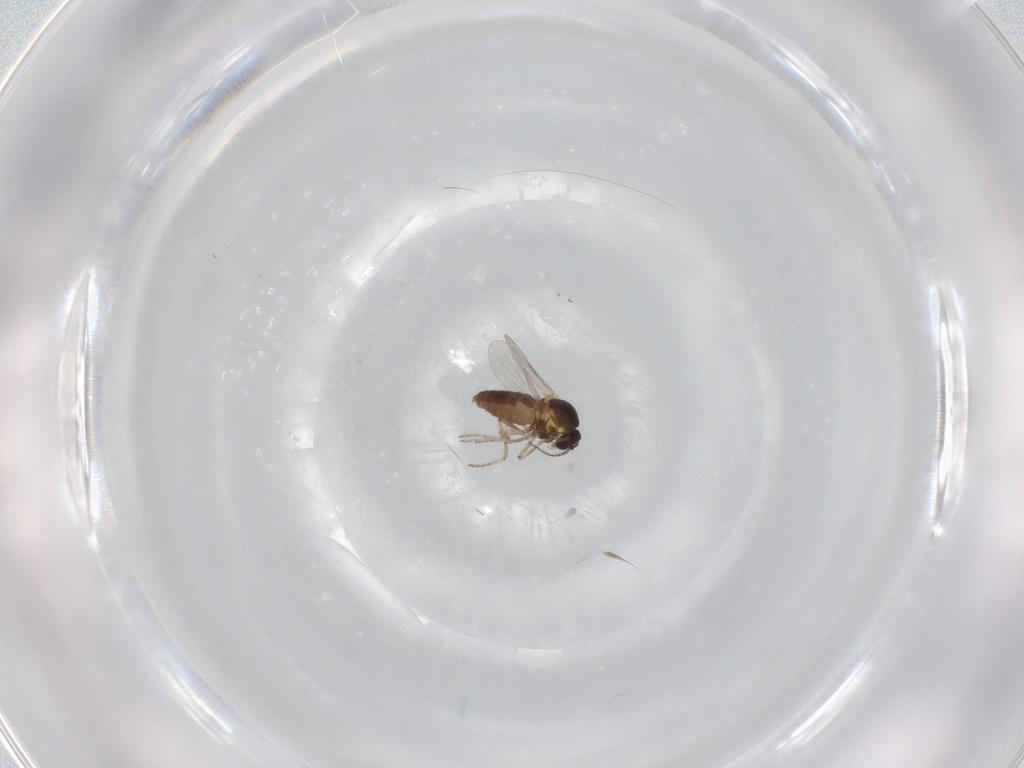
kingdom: Animalia
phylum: Arthropoda
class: Insecta
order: Diptera
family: Ceratopogonidae
